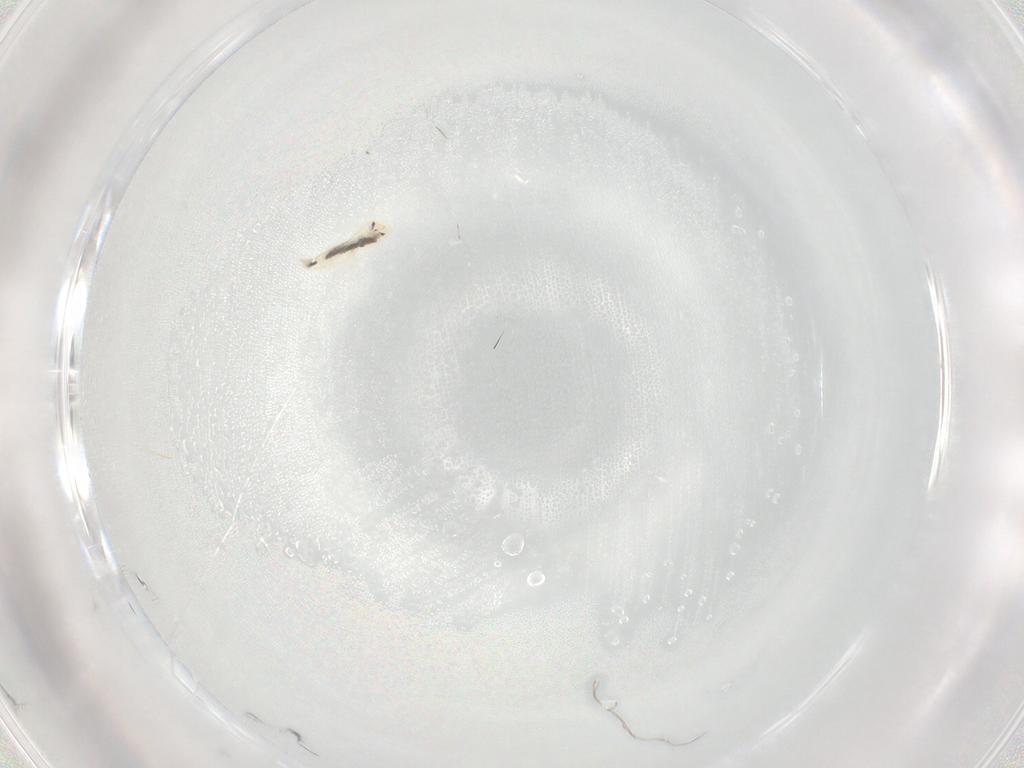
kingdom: Animalia
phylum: Arthropoda
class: Collembola
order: Entomobryomorpha
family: Entomobryidae
